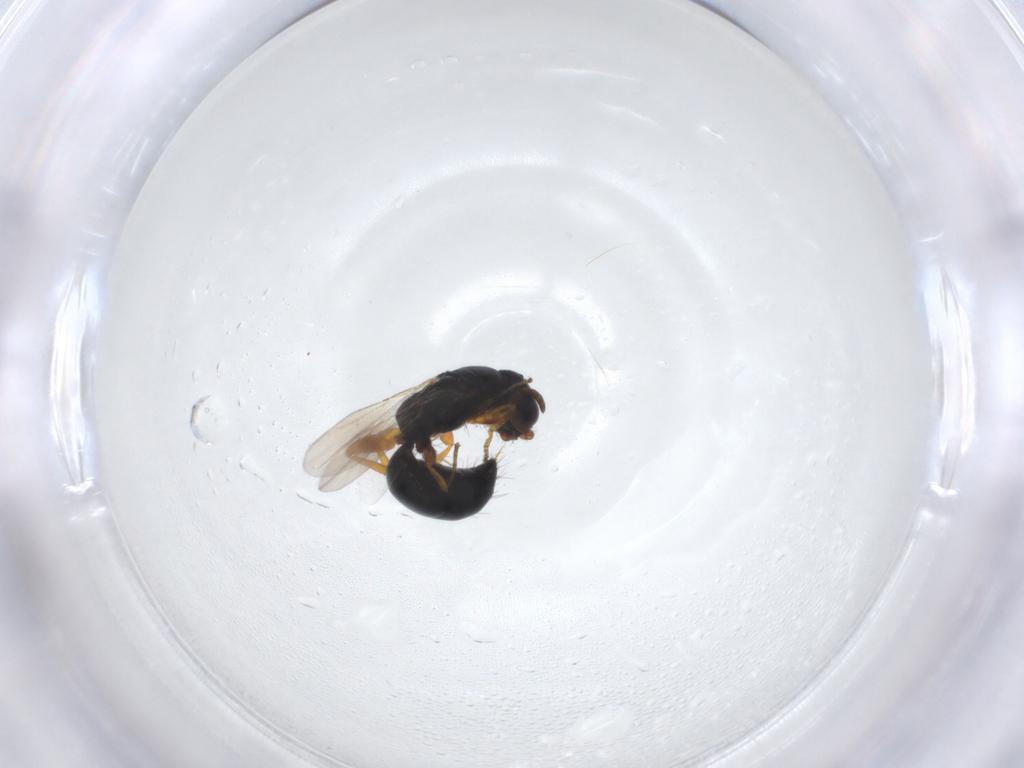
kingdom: Animalia
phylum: Arthropoda
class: Insecta
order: Hymenoptera
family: Bethylidae
